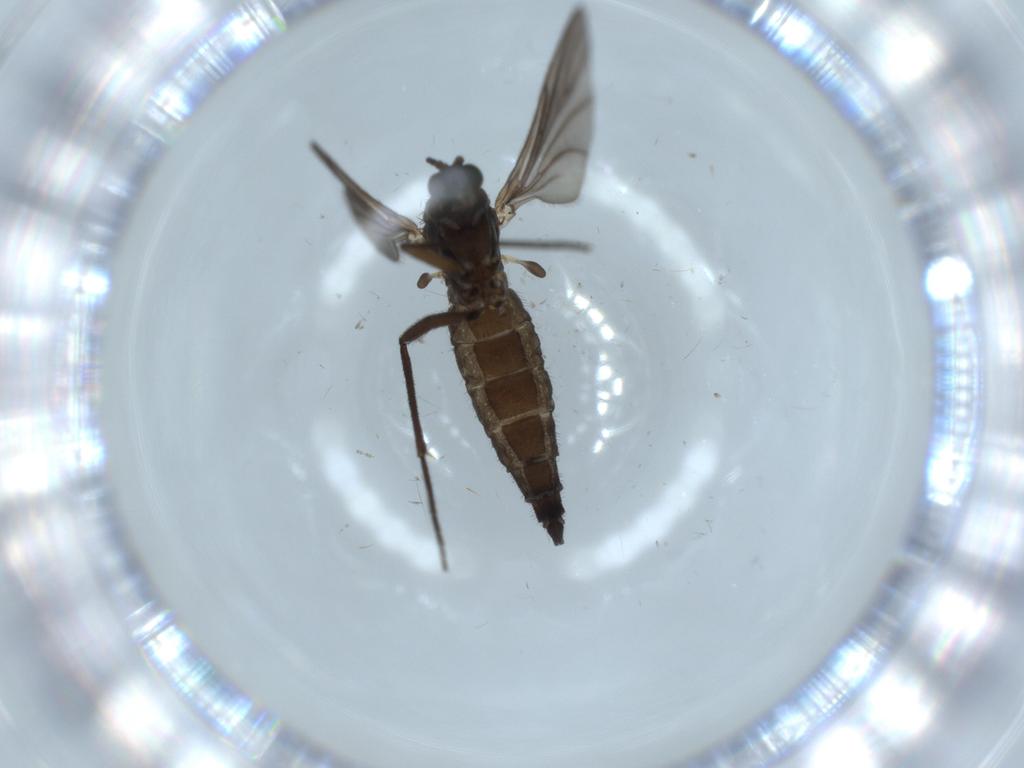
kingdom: Animalia
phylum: Arthropoda
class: Insecta
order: Diptera
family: Sciaridae
